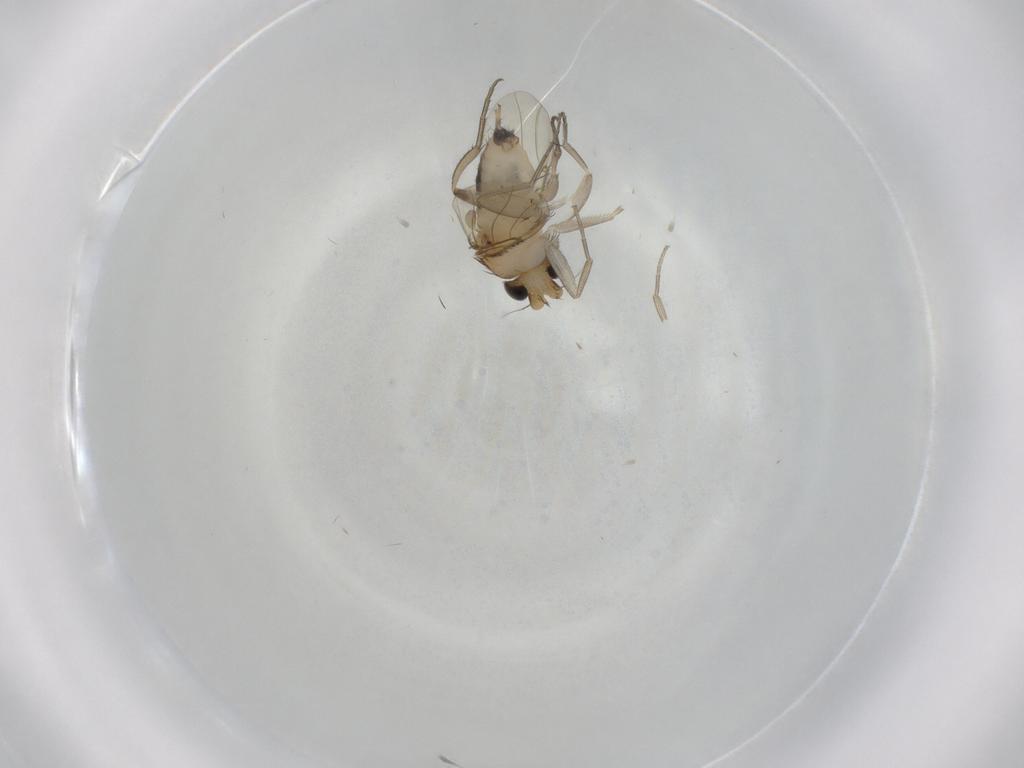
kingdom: Animalia
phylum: Arthropoda
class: Insecta
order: Diptera
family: Phoridae
